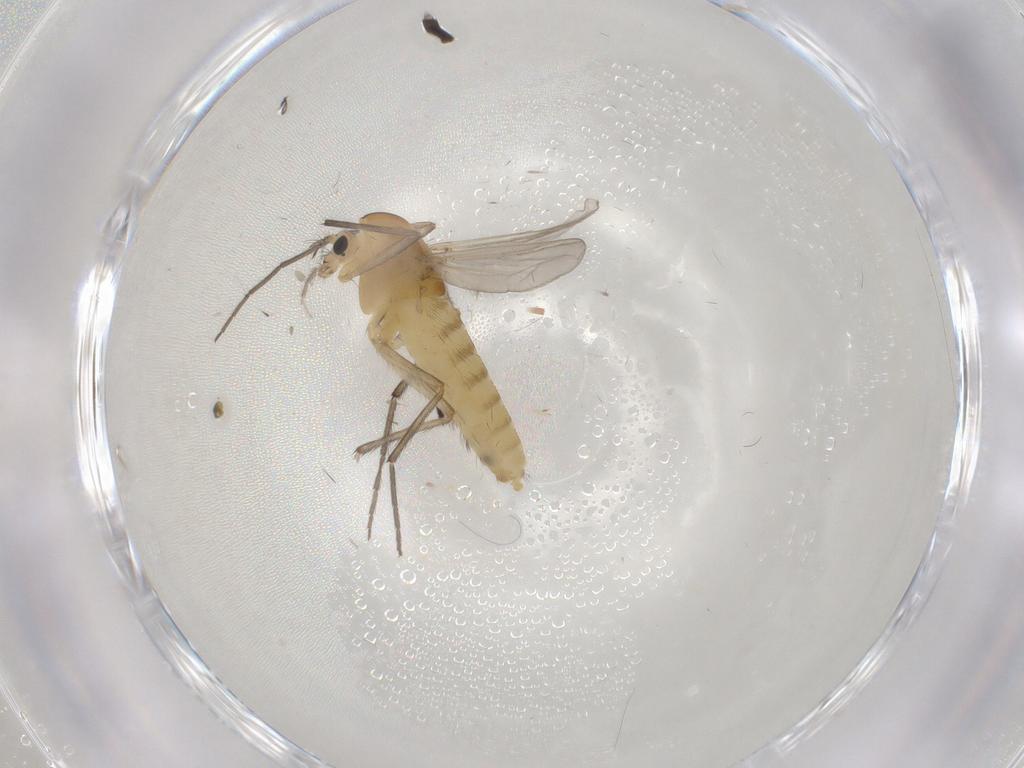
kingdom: Animalia
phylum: Arthropoda
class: Insecta
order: Diptera
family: Chironomidae
